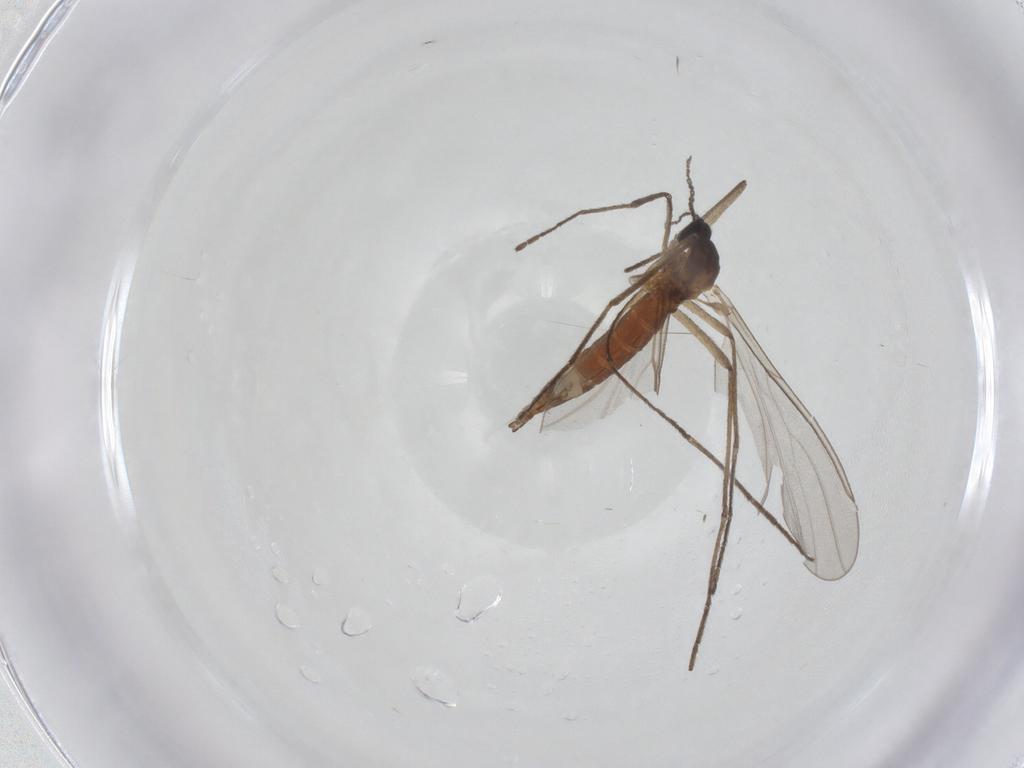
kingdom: Animalia
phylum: Arthropoda
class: Insecta
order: Diptera
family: Cecidomyiidae
